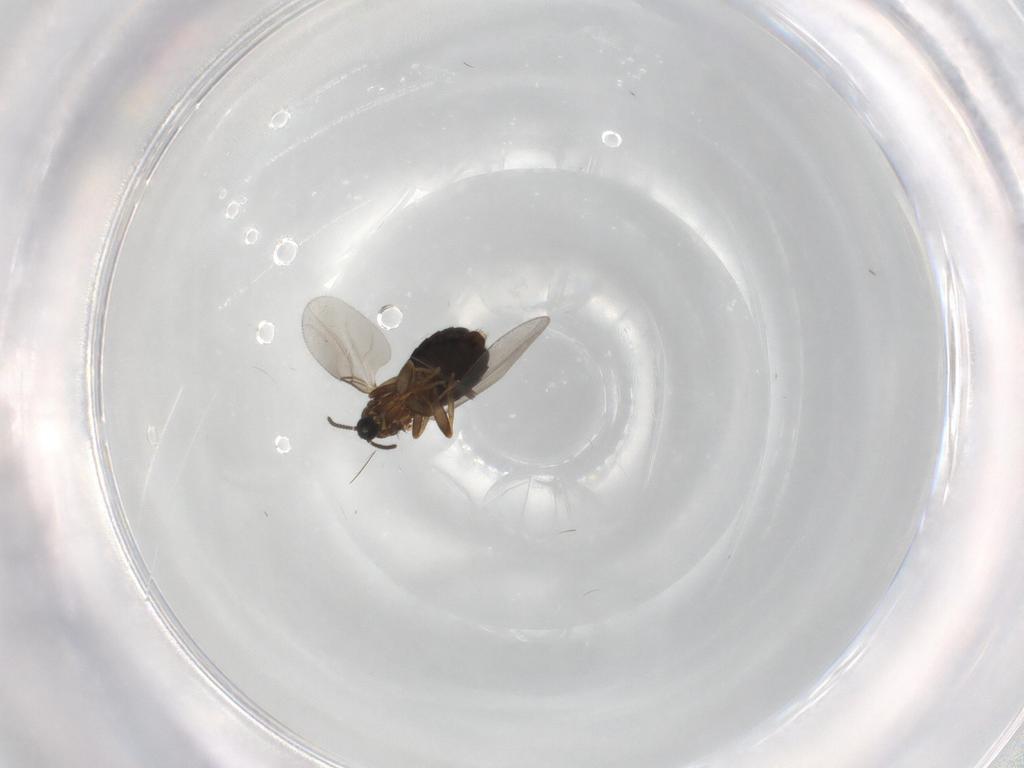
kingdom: Animalia
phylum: Arthropoda
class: Insecta
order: Diptera
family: Scatopsidae
